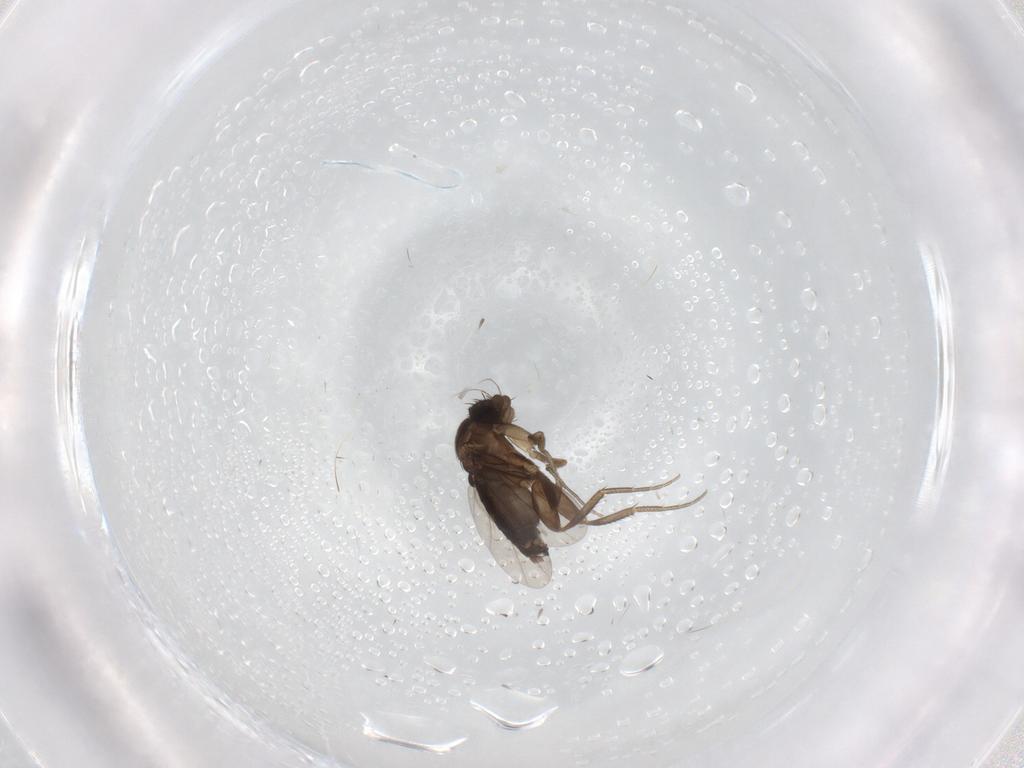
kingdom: Animalia
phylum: Arthropoda
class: Insecta
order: Diptera
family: Phoridae
